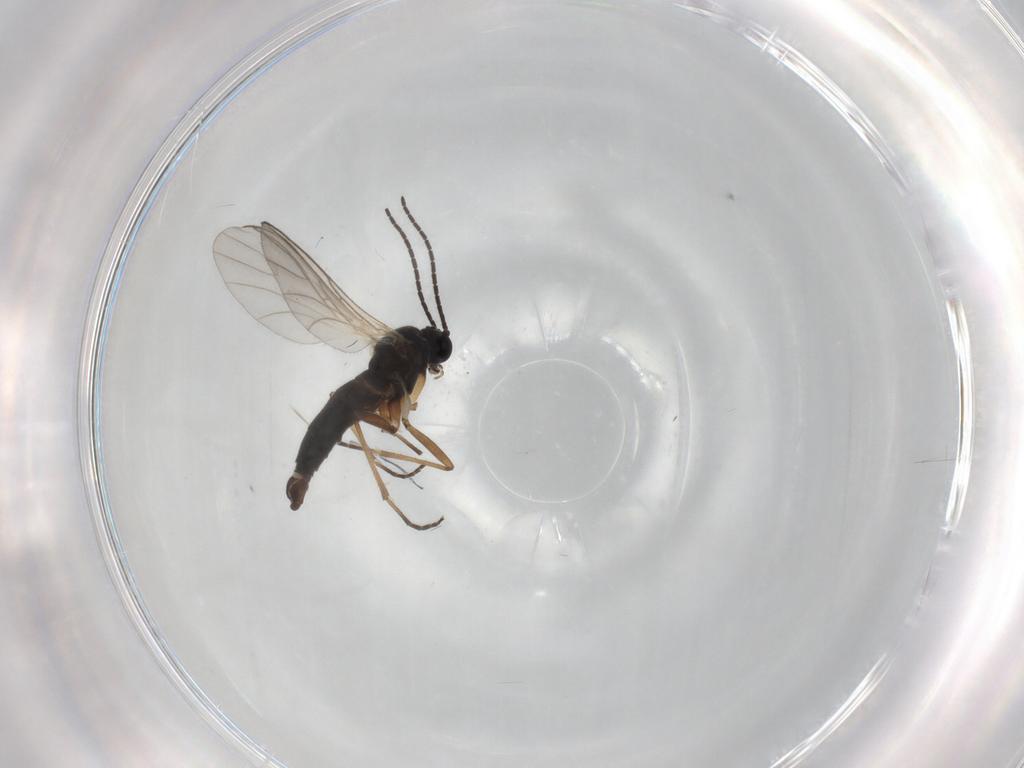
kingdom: Animalia
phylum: Arthropoda
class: Insecta
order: Diptera
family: Sciaridae
